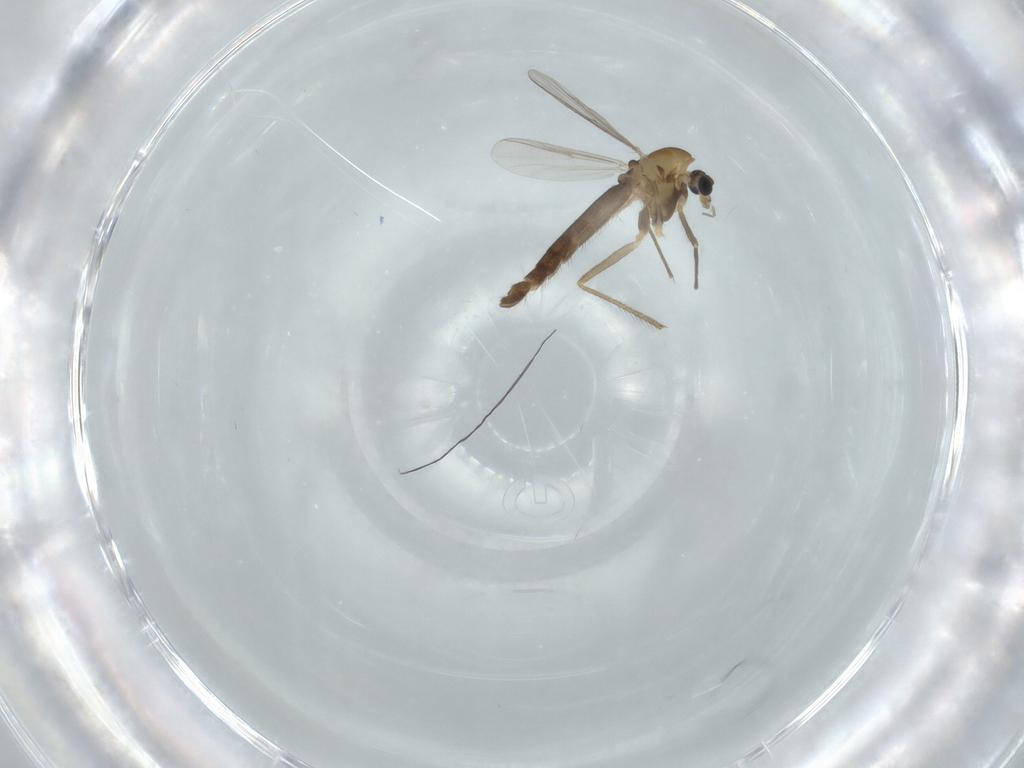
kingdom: Animalia
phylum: Arthropoda
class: Insecta
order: Diptera
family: Chironomidae
